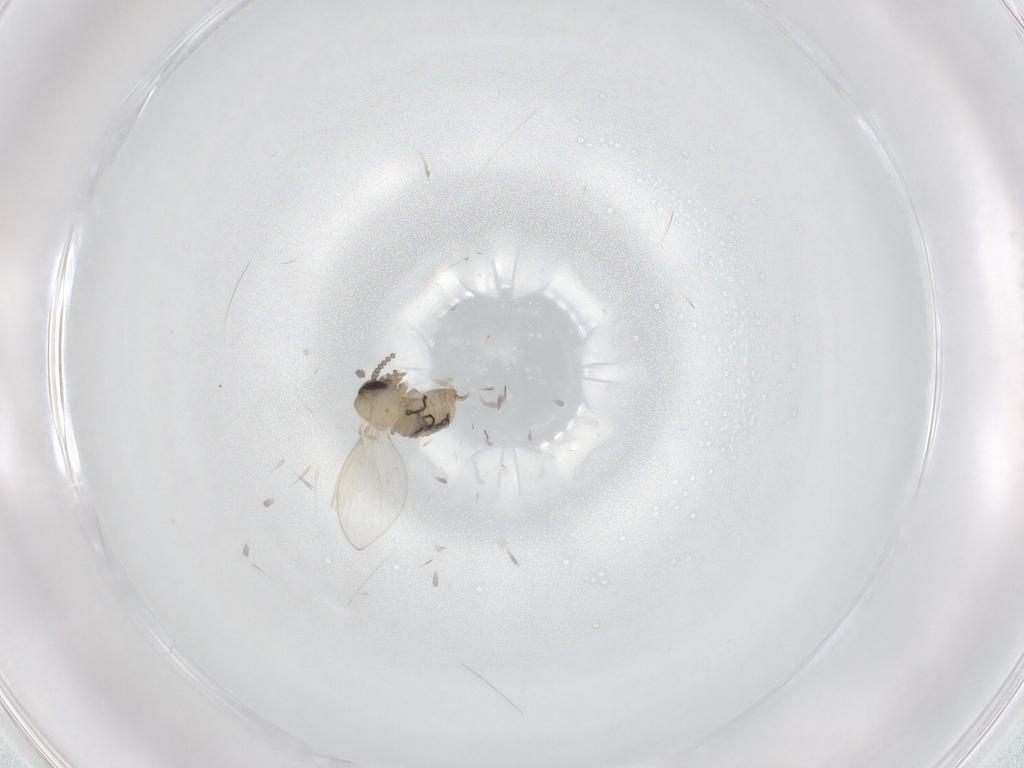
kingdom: Animalia
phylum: Arthropoda
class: Insecta
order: Diptera
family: Psychodidae
